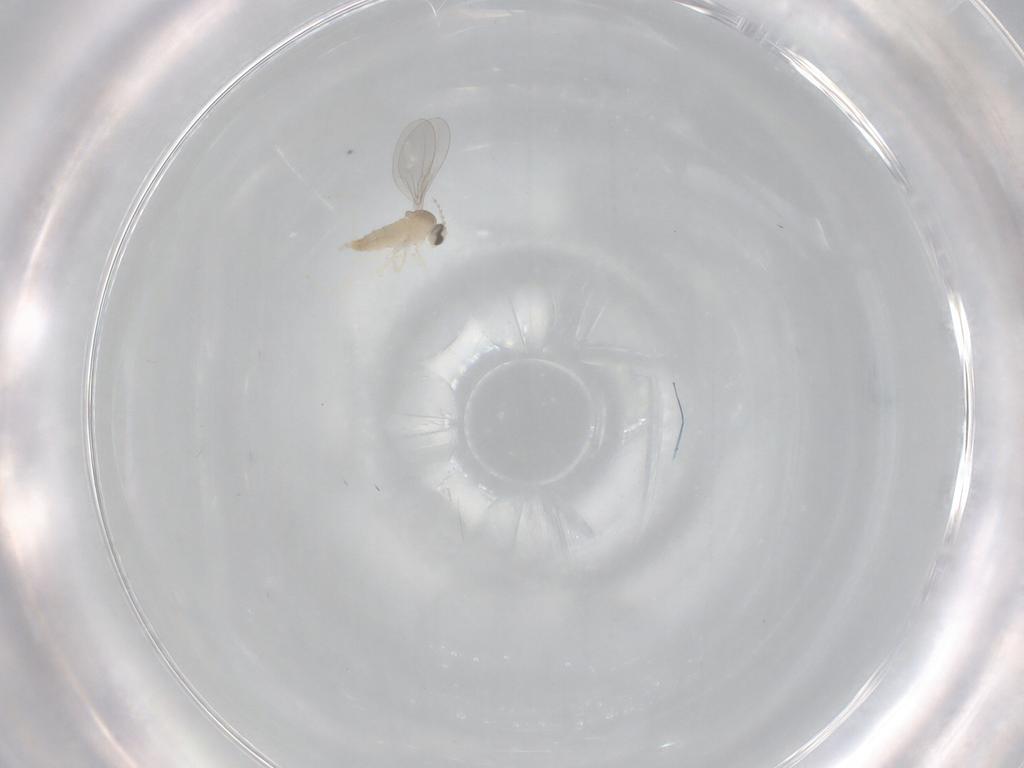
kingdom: Animalia
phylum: Arthropoda
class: Insecta
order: Diptera
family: Cecidomyiidae
